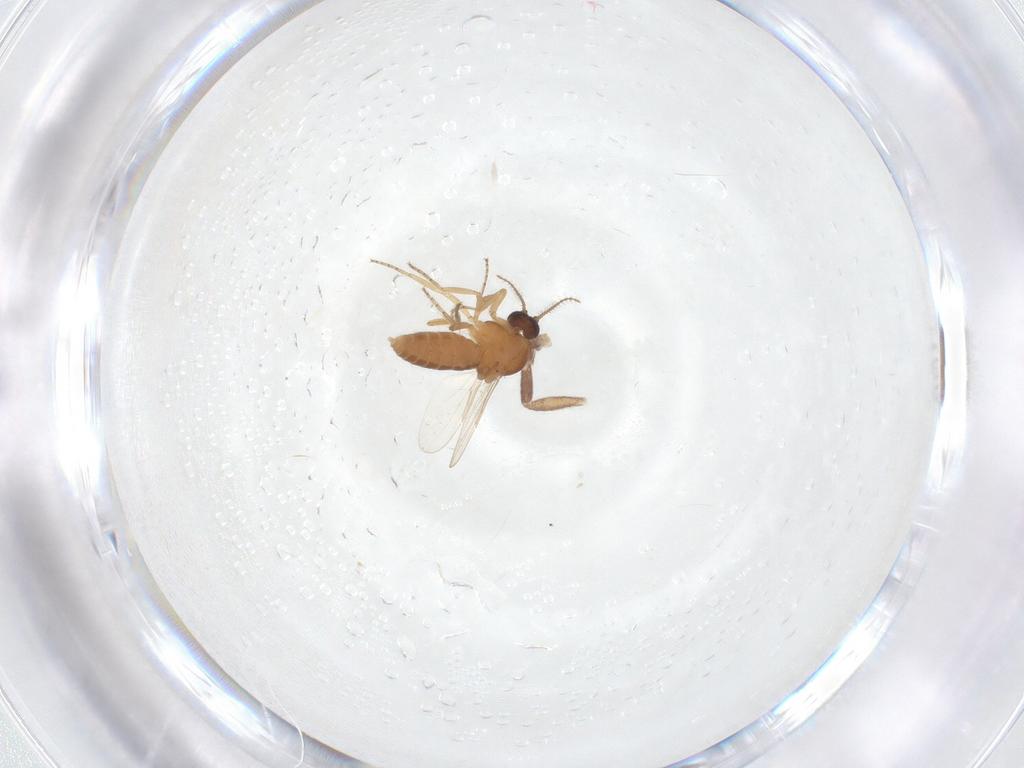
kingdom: Animalia
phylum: Arthropoda
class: Insecta
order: Diptera
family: Ceratopogonidae
